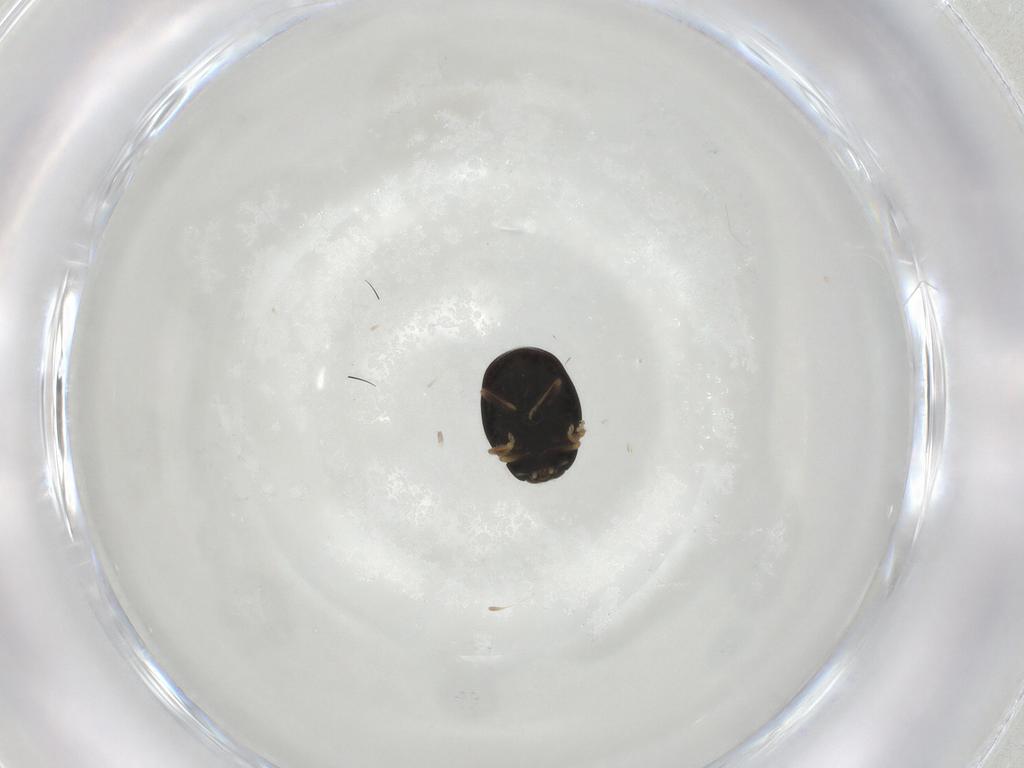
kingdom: Animalia
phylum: Arthropoda
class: Insecta
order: Coleoptera
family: Coccinellidae
